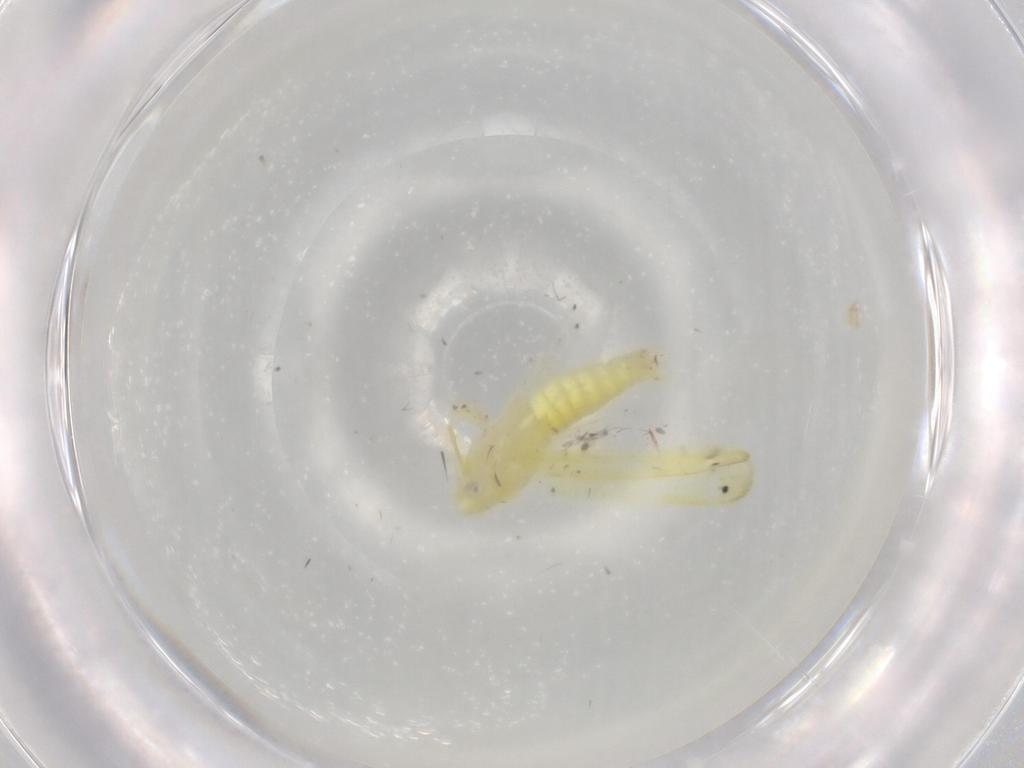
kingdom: Animalia
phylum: Arthropoda
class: Insecta
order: Hemiptera
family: Cicadellidae
